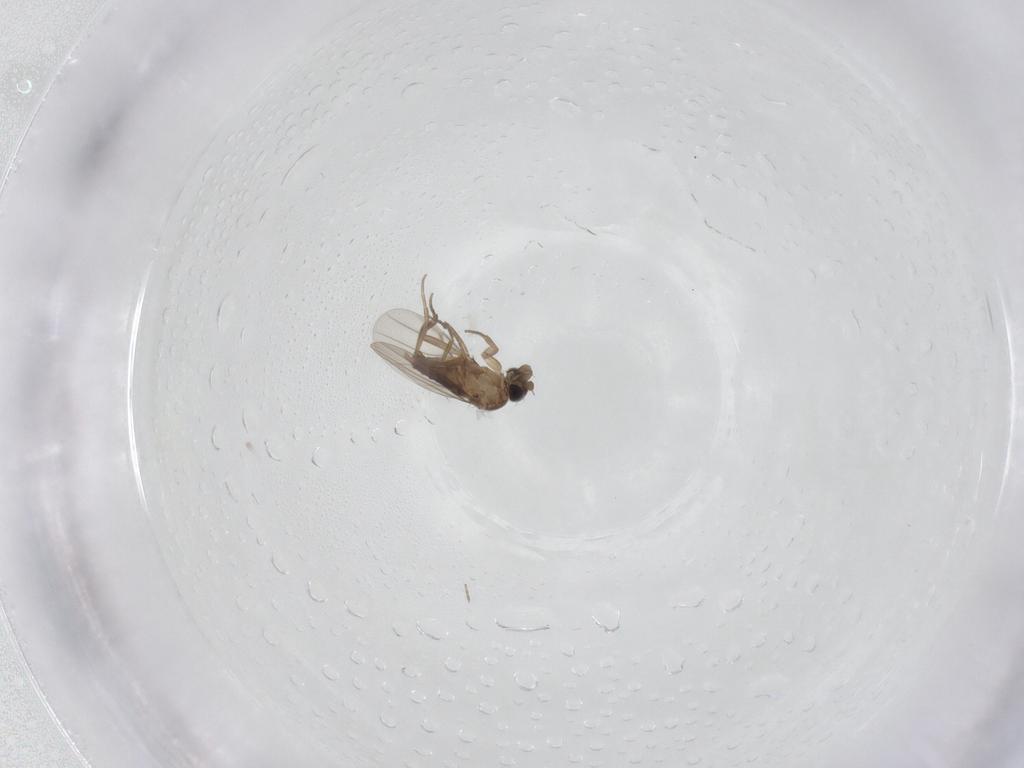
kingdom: Animalia
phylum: Arthropoda
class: Insecta
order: Diptera
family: Phoridae
